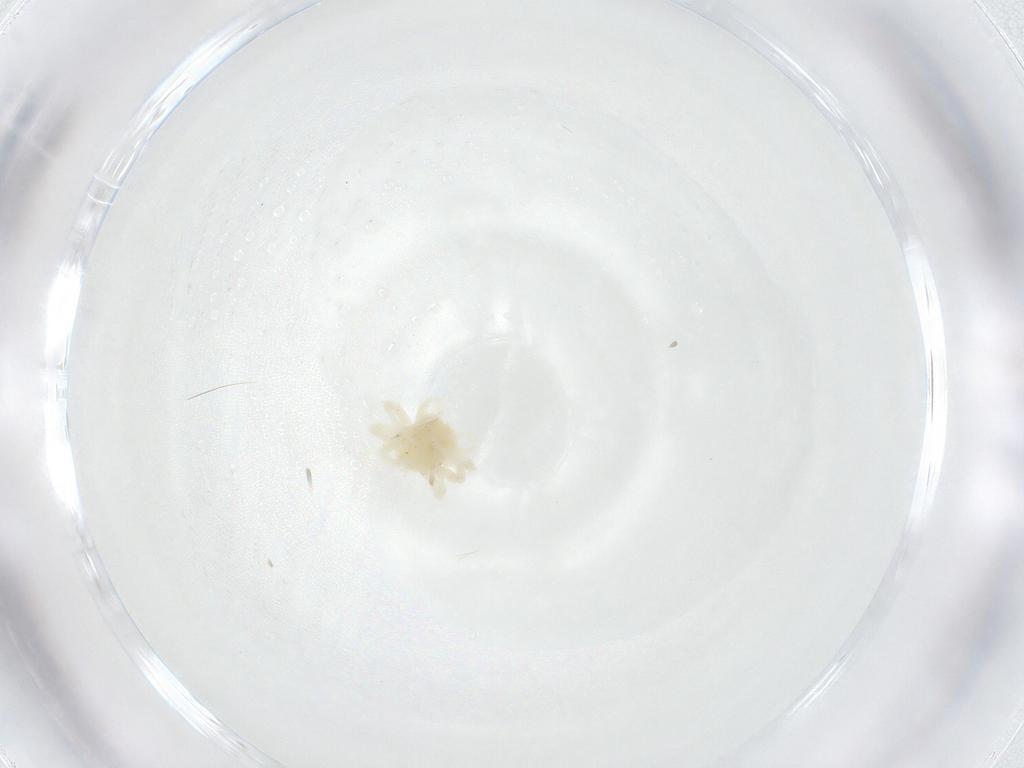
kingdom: Animalia
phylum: Arthropoda
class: Arachnida
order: Trombidiformes
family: Anystidae
